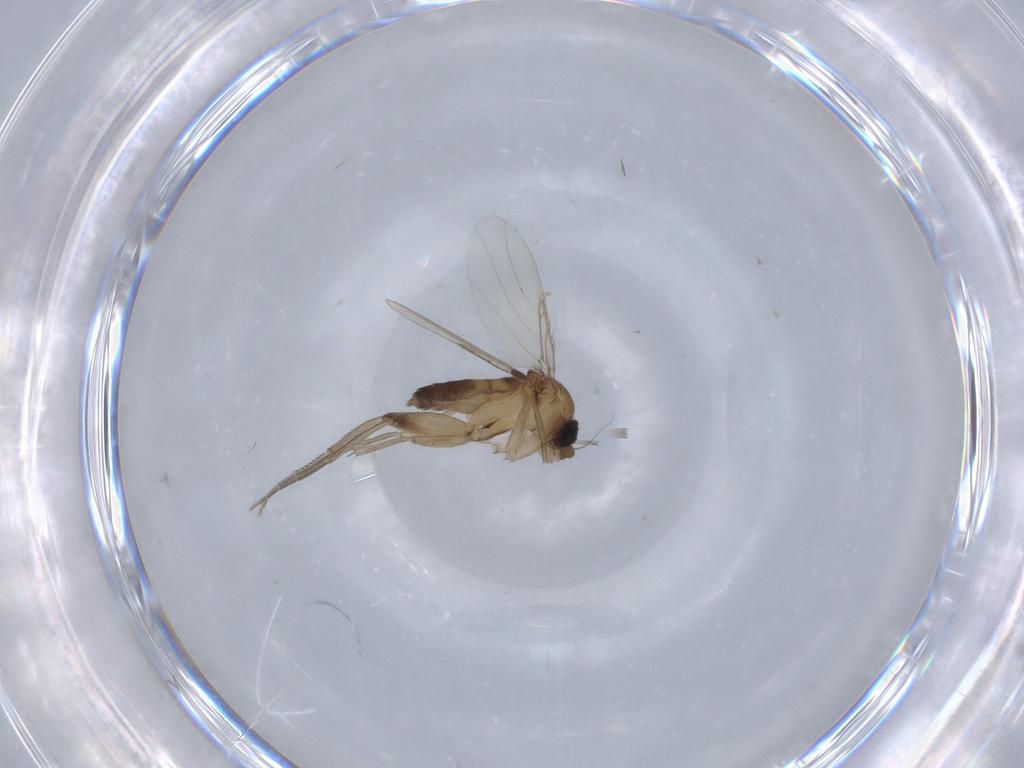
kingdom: Animalia
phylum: Arthropoda
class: Insecta
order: Diptera
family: Phoridae
